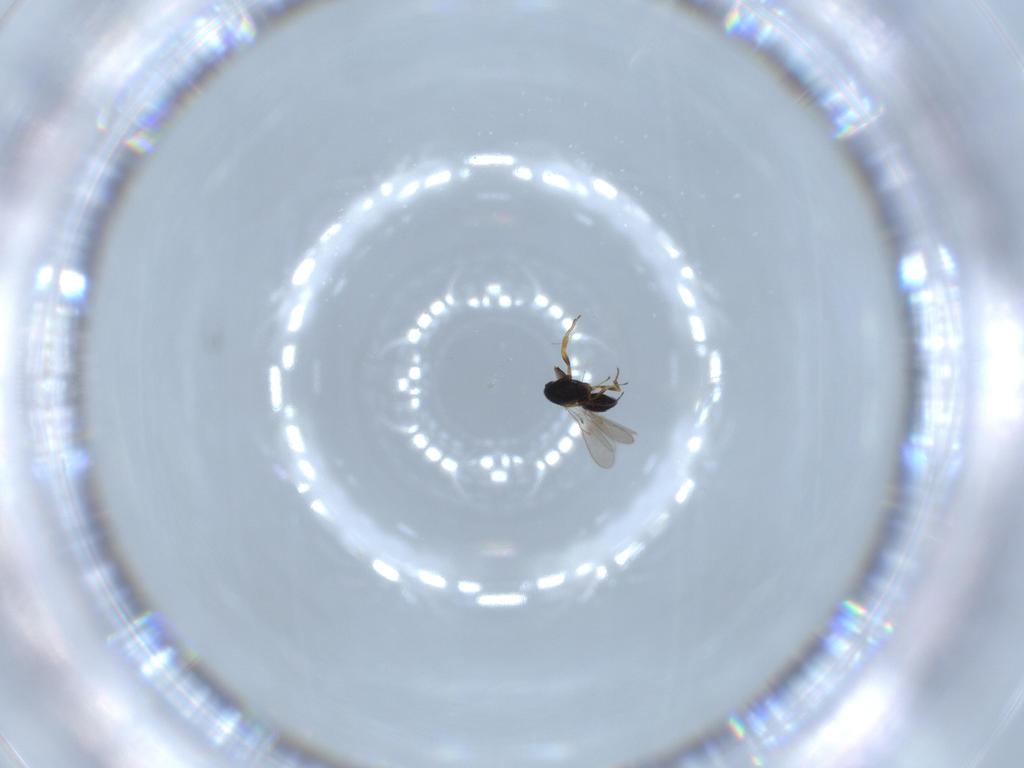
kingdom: Animalia
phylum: Arthropoda
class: Insecta
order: Hymenoptera
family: Scelionidae
